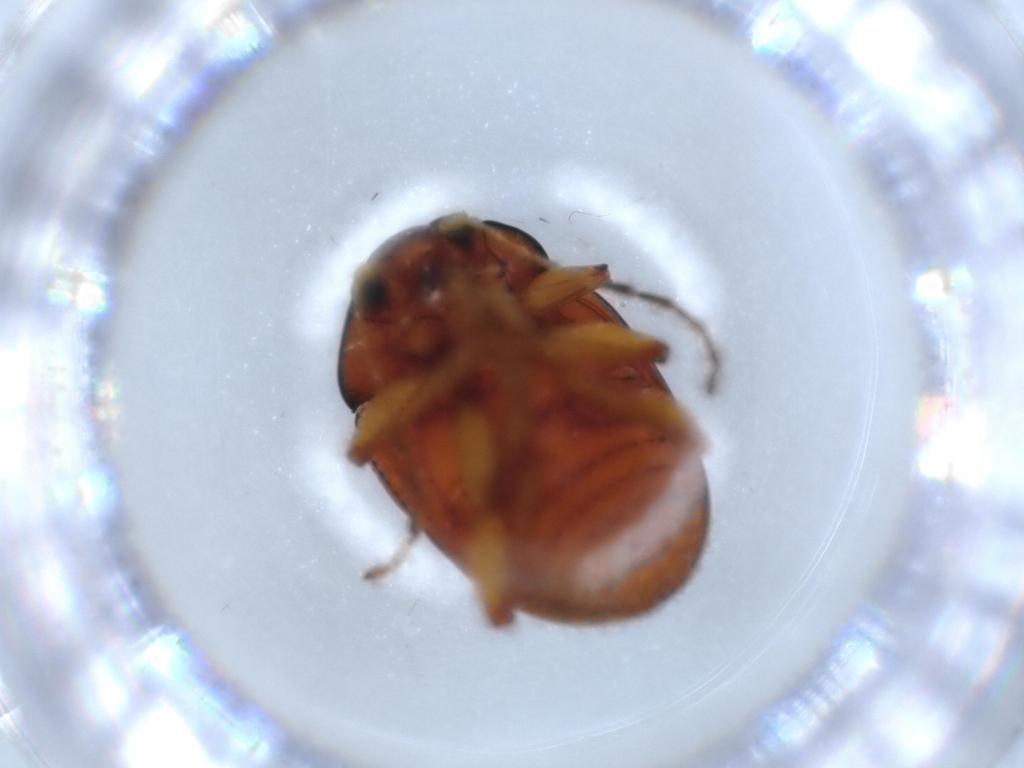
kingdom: Animalia
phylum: Arthropoda
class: Insecta
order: Coleoptera
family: Chrysomelidae
